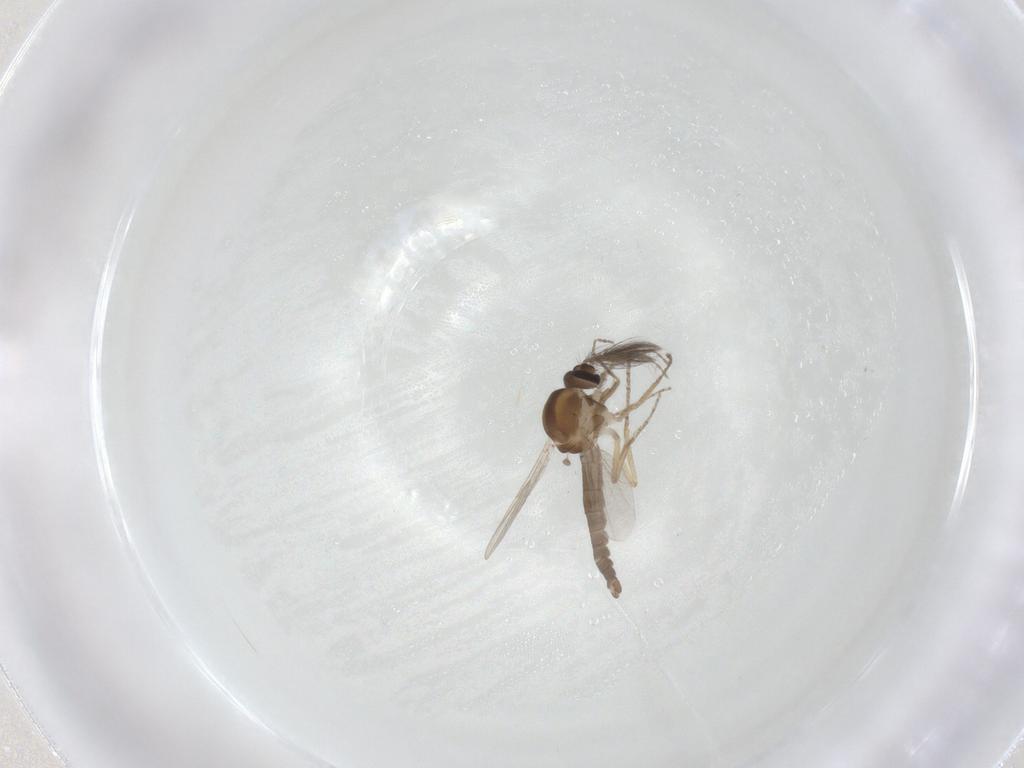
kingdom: Animalia
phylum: Arthropoda
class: Insecta
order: Diptera
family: Ceratopogonidae
